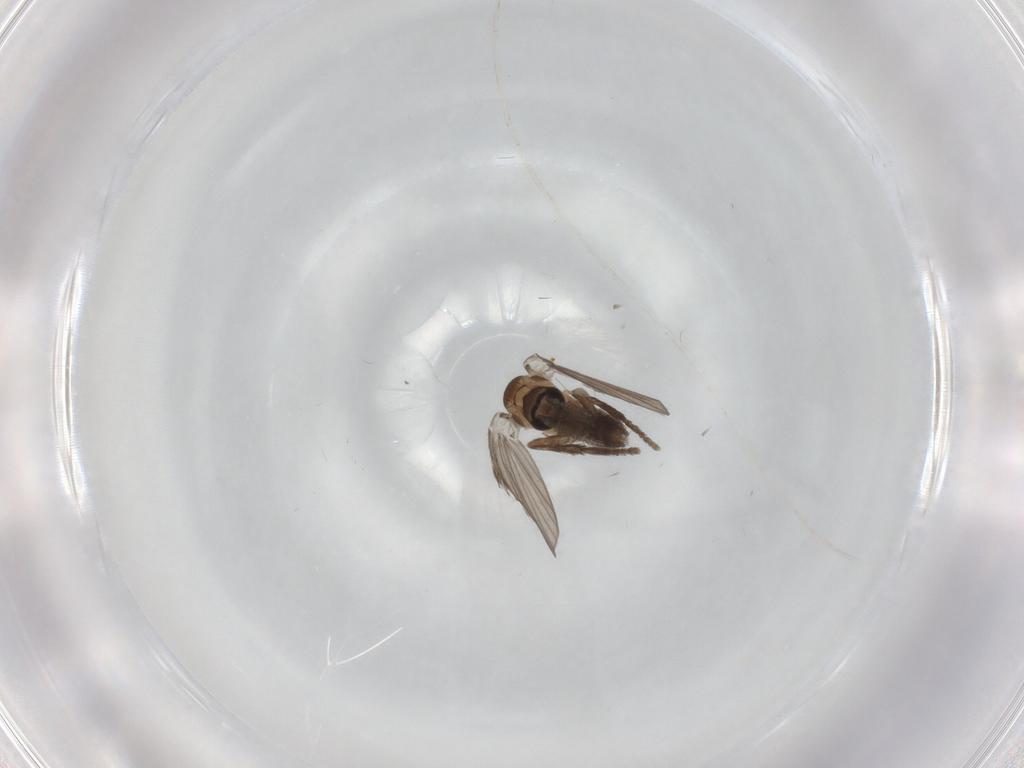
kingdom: Animalia
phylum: Arthropoda
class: Insecta
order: Diptera
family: Psychodidae
